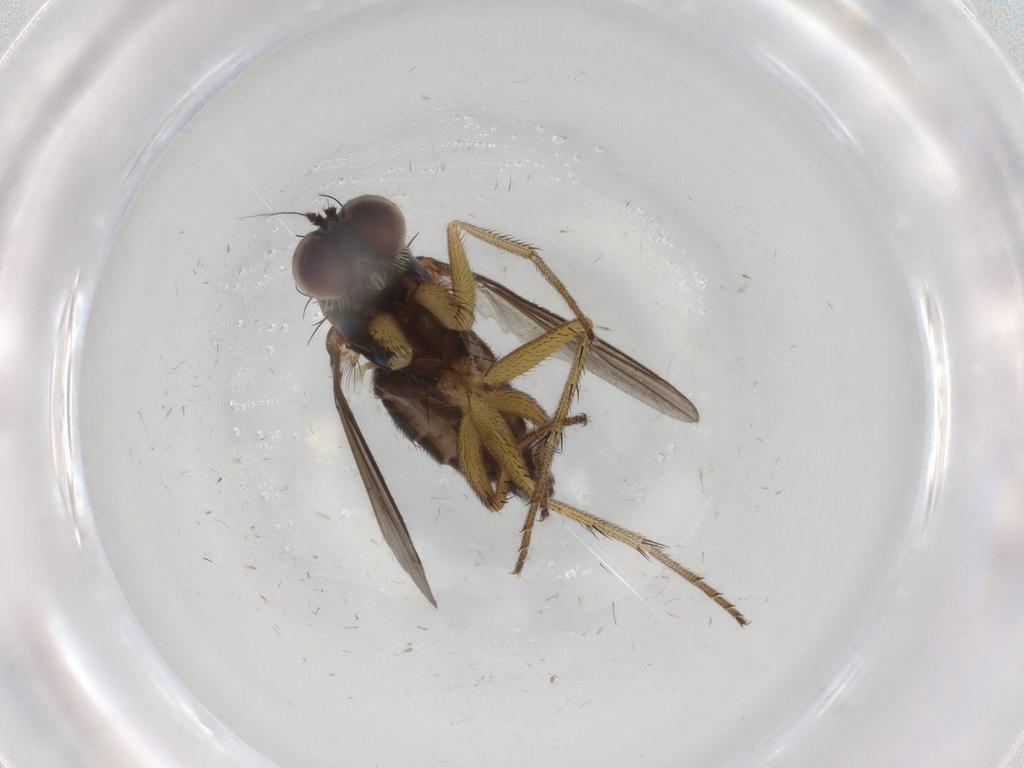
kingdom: Animalia
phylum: Arthropoda
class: Insecta
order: Diptera
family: Dolichopodidae
